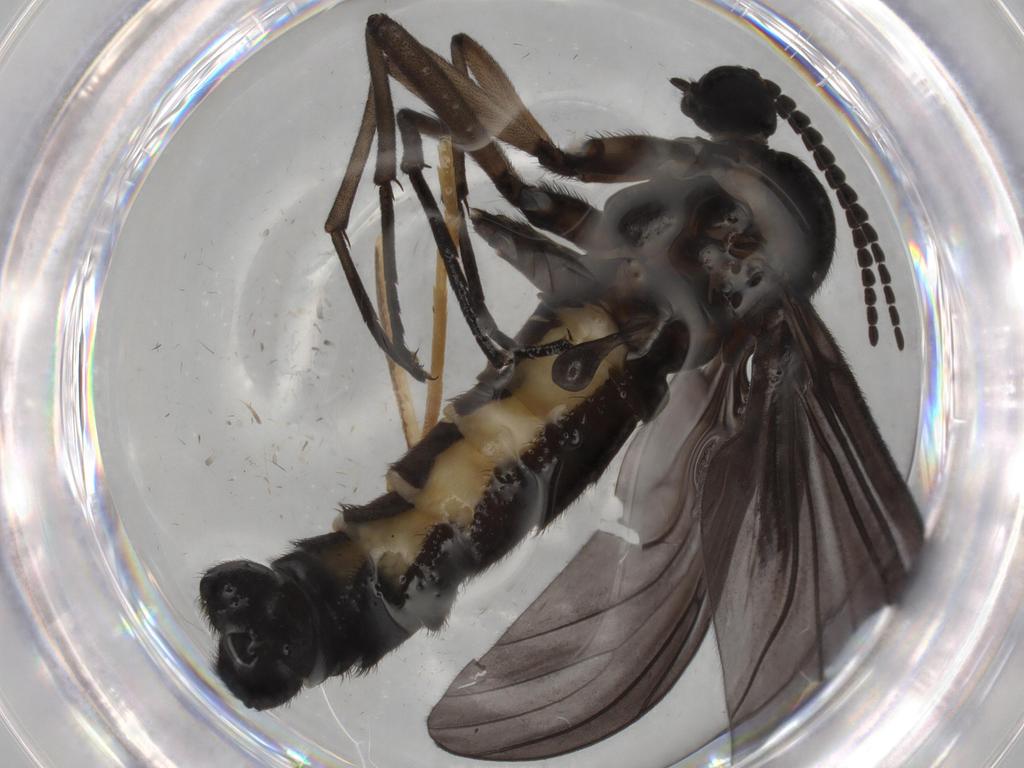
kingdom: Animalia
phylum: Arthropoda
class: Insecta
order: Diptera
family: Sciaridae
